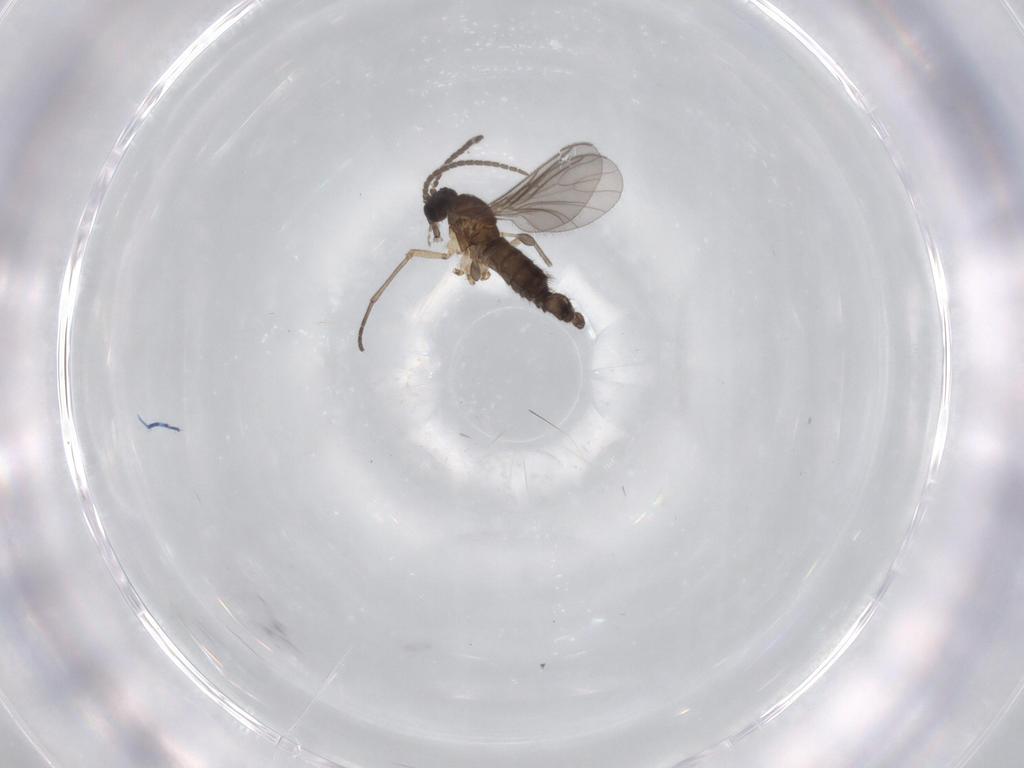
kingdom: Animalia
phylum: Arthropoda
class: Insecta
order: Diptera
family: Sciaridae
